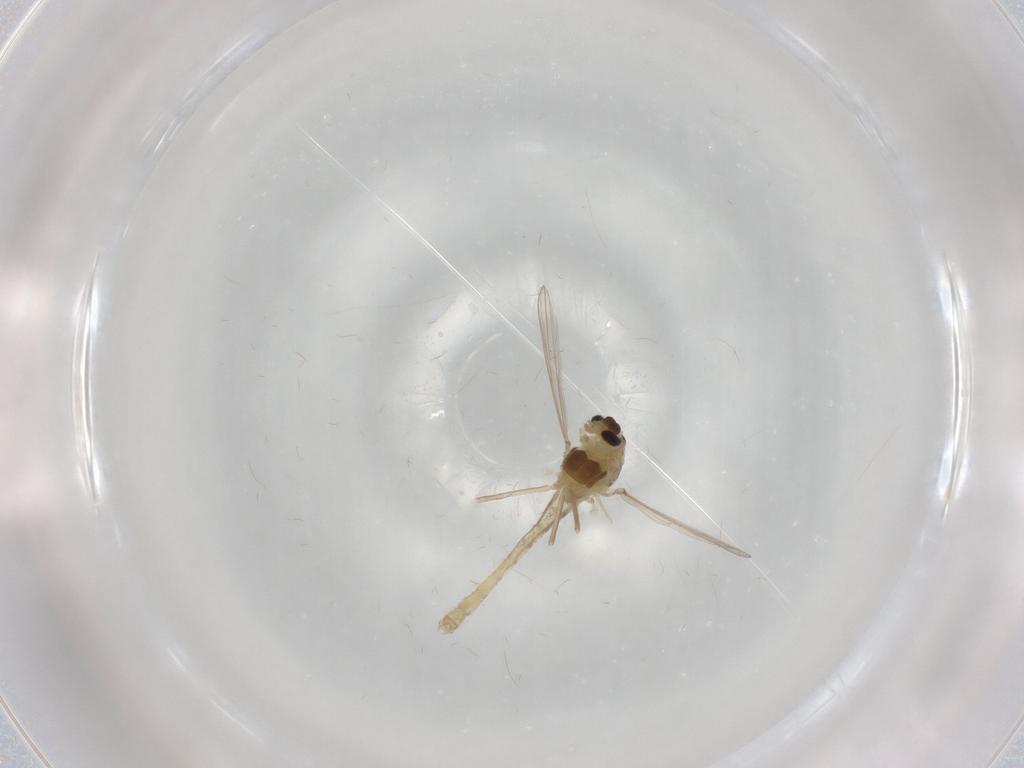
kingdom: Animalia
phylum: Arthropoda
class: Insecta
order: Diptera
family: Chironomidae
